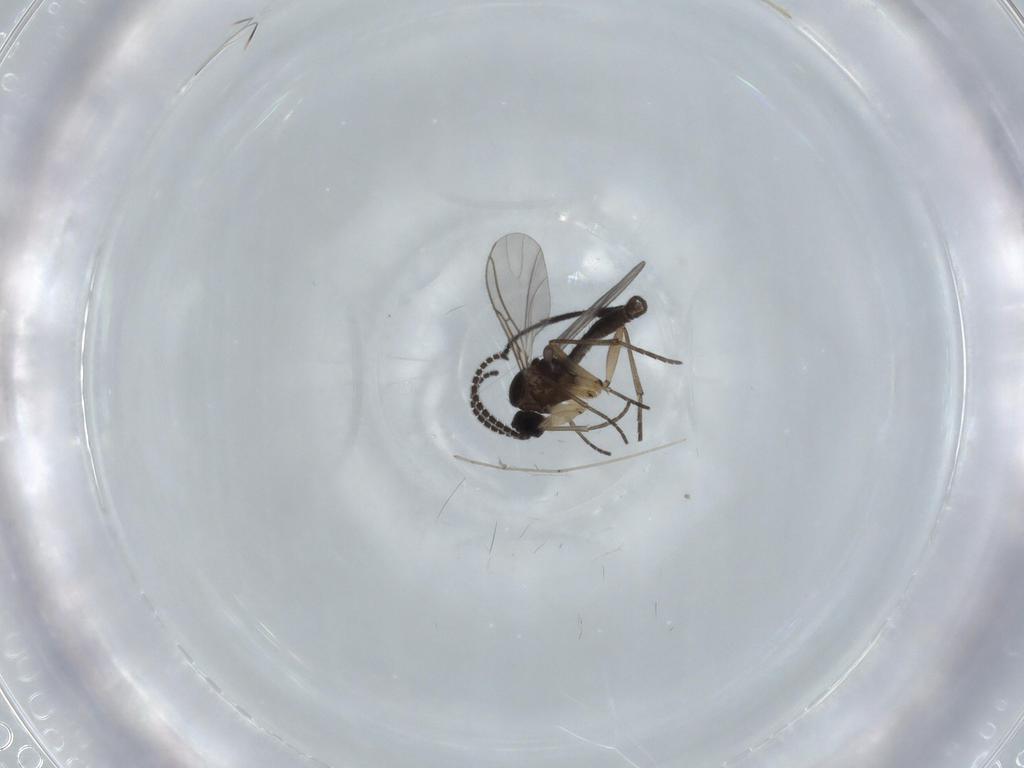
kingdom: Animalia
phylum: Arthropoda
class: Insecta
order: Diptera
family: Sciaridae
